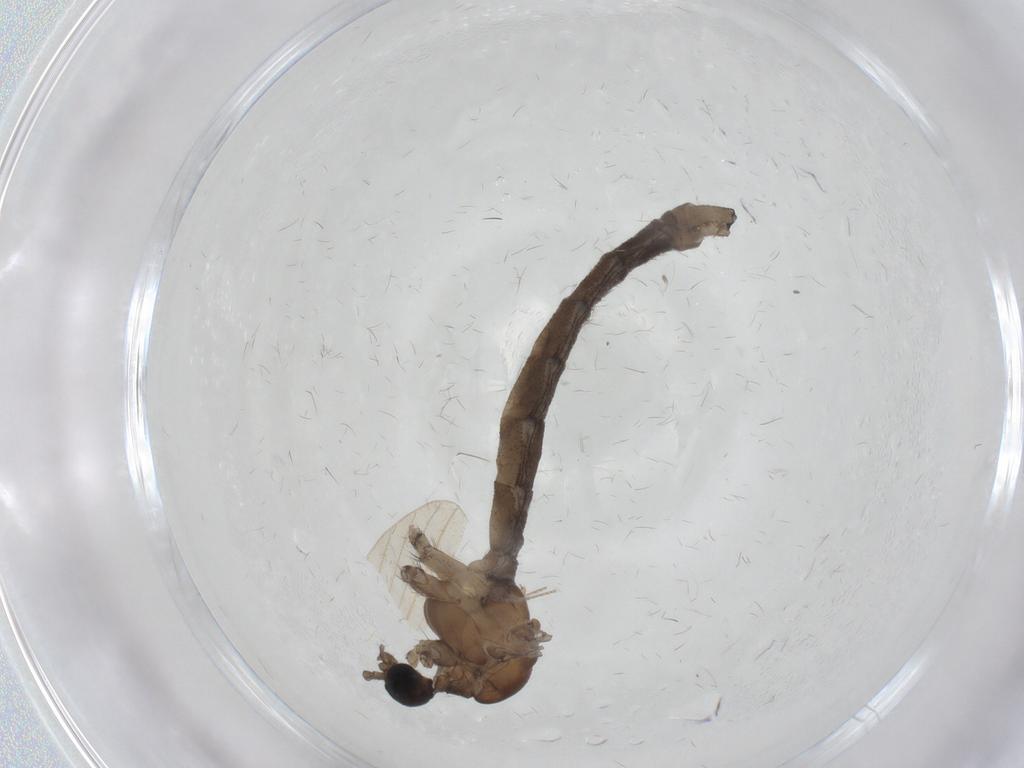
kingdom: Animalia
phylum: Arthropoda
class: Insecta
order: Diptera
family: Limoniidae
